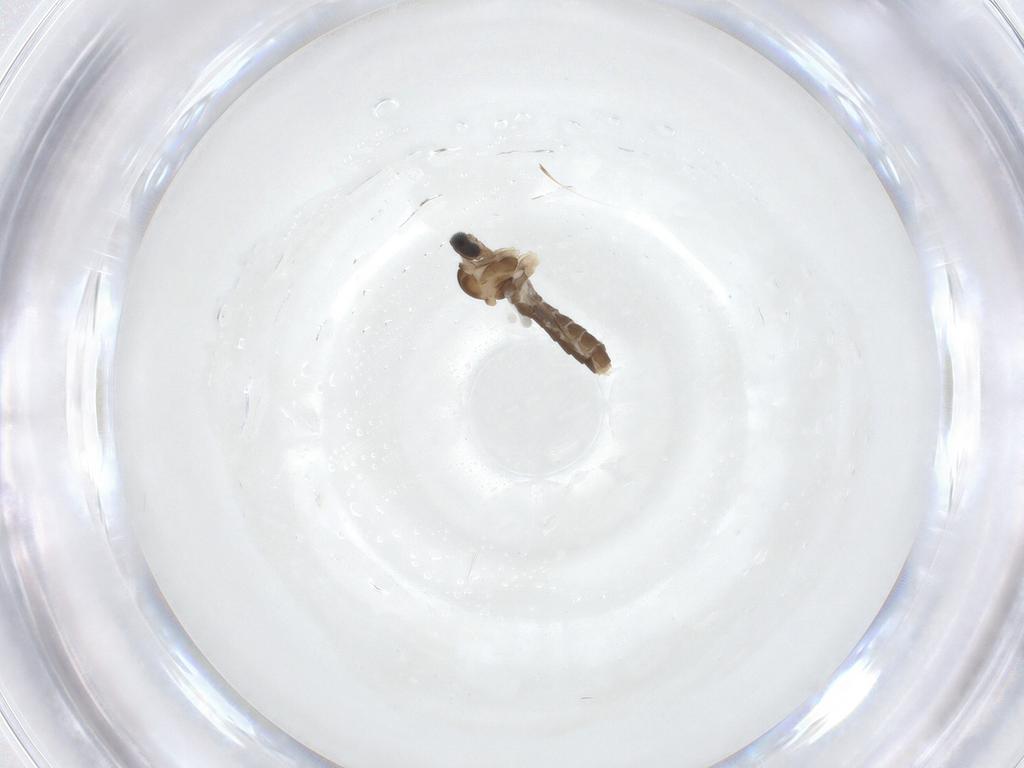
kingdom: Animalia
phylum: Arthropoda
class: Insecta
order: Diptera
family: Cecidomyiidae
